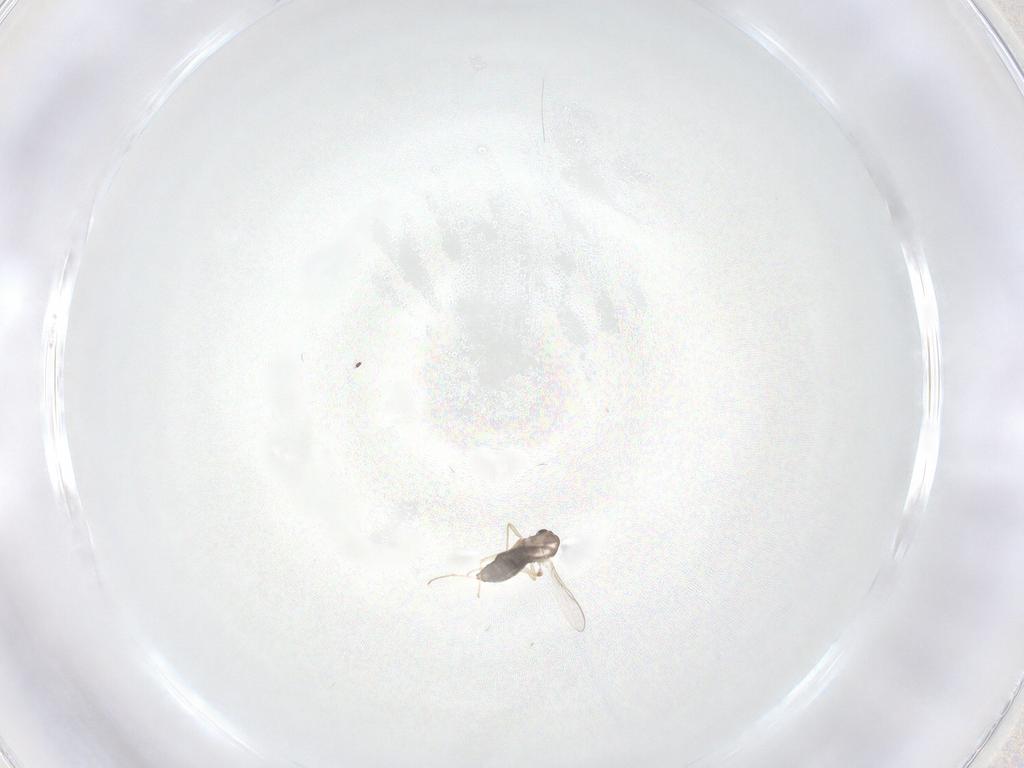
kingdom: Animalia
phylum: Arthropoda
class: Insecta
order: Diptera
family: Chironomidae
